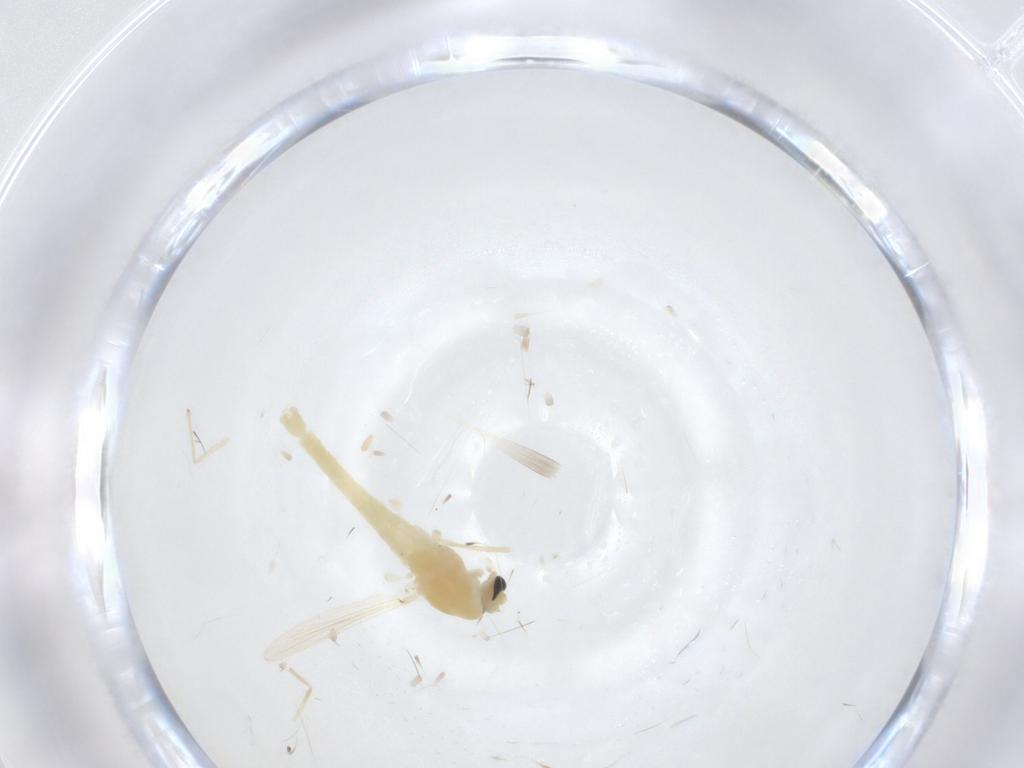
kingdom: Animalia
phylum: Arthropoda
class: Insecta
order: Diptera
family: Chironomidae
